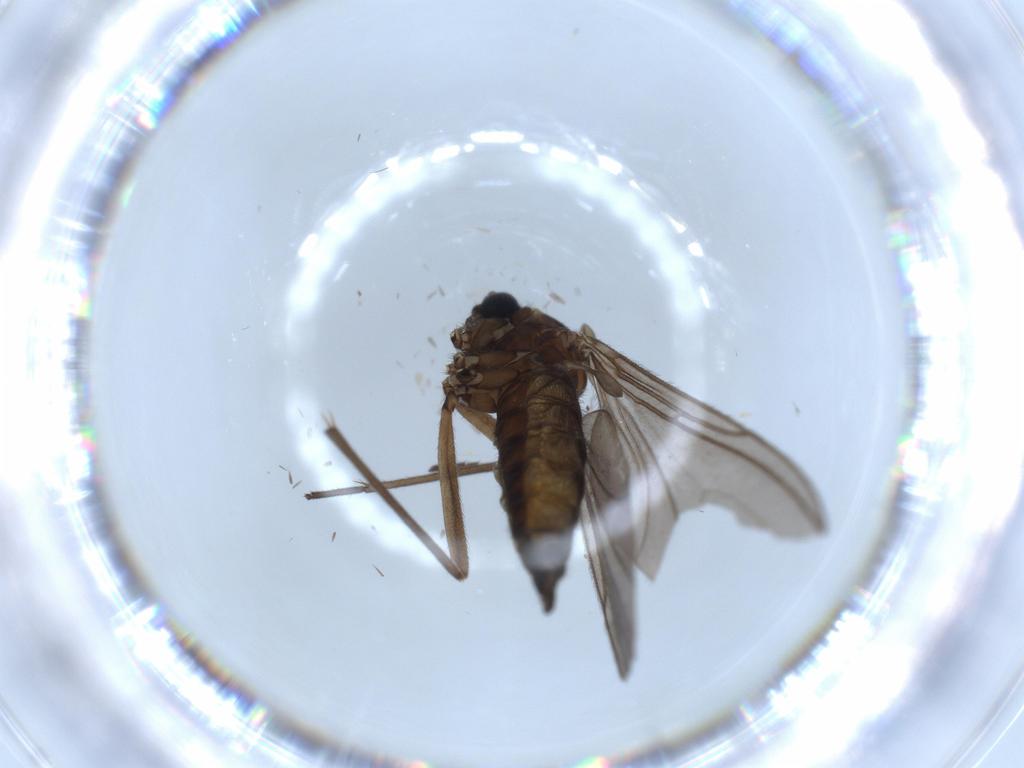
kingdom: Animalia
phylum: Arthropoda
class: Insecta
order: Diptera
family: Sciaridae
